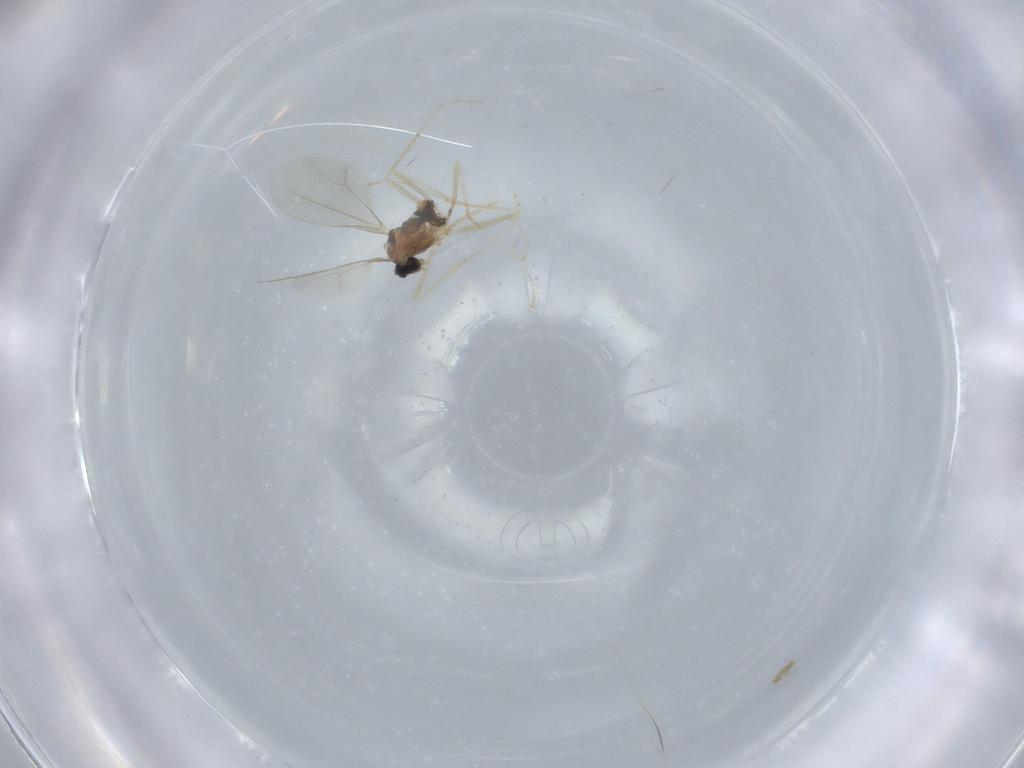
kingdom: Animalia
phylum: Arthropoda
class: Insecta
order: Diptera
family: Cecidomyiidae
